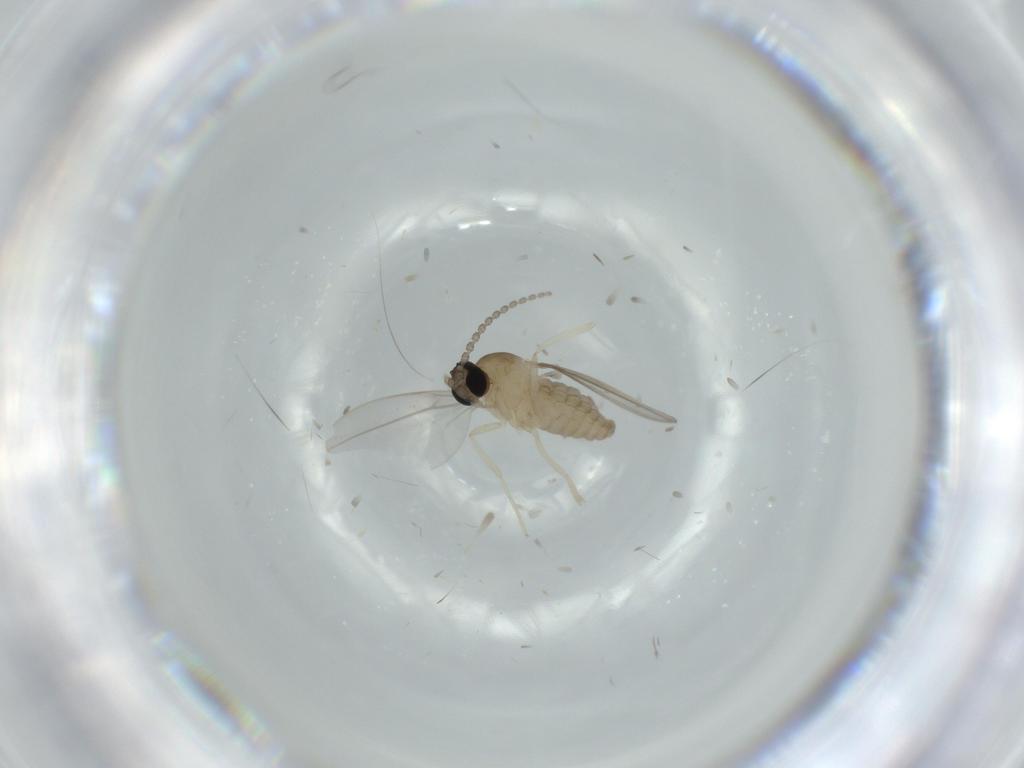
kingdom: Animalia
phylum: Arthropoda
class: Insecta
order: Diptera
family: Cecidomyiidae
